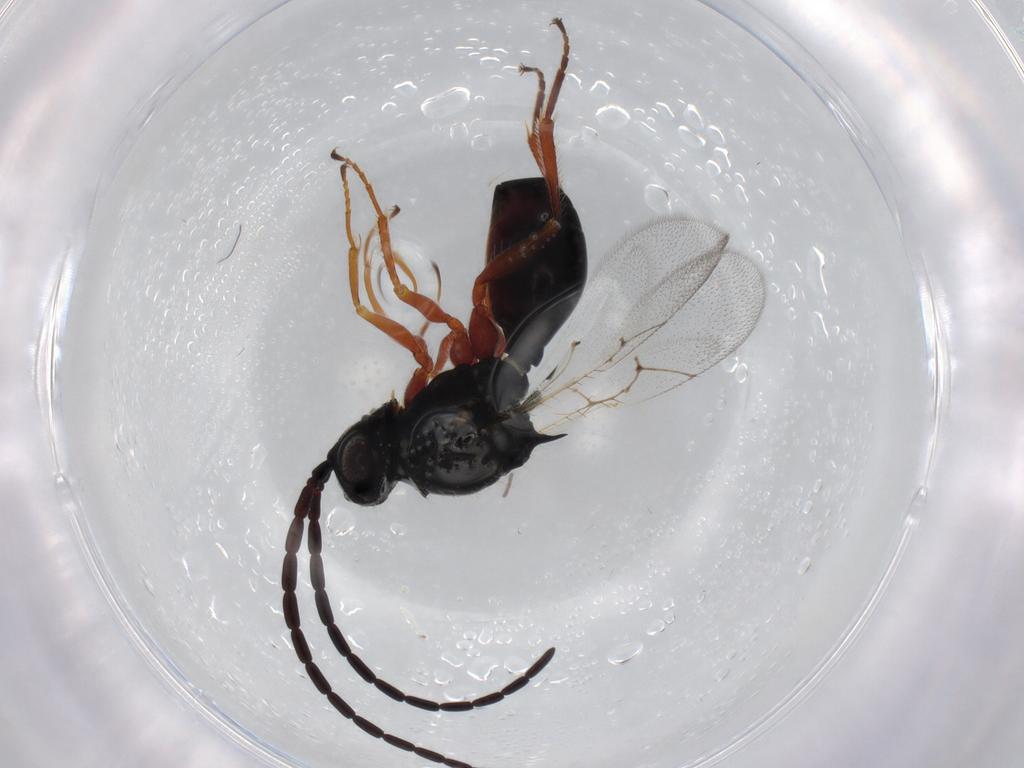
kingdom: Animalia
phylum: Arthropoda
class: Insecta
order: Hymenoptera
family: Figitidae
